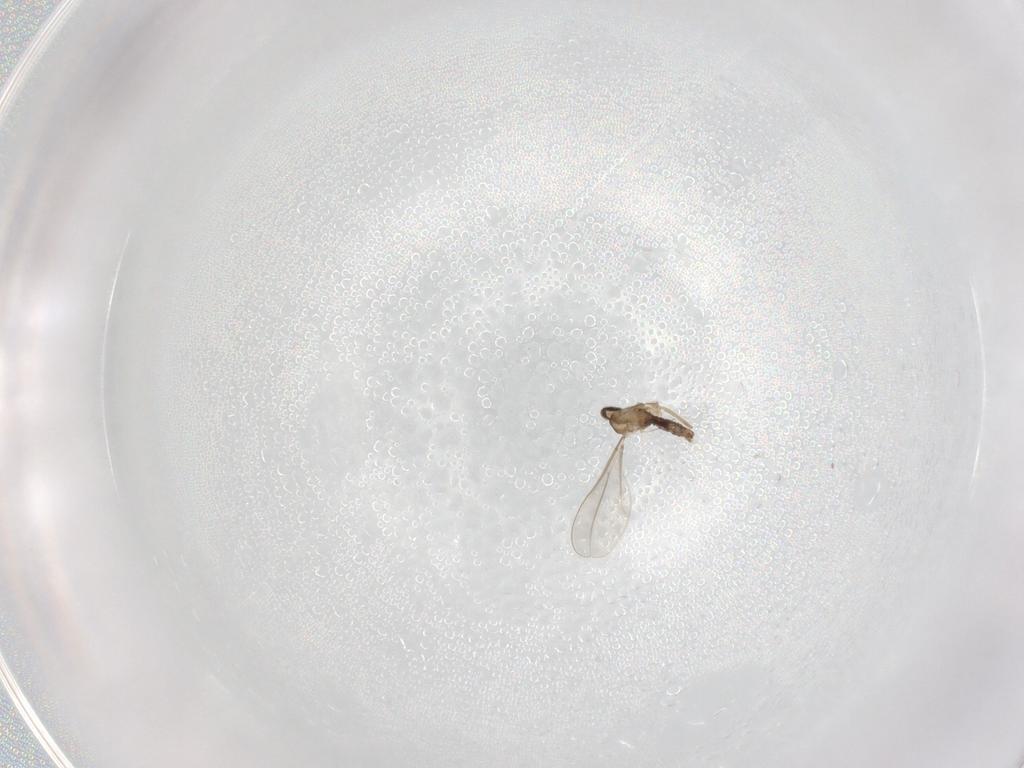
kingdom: Animalia
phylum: Arthropoda
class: Insecta
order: Diptera
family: Cecidomyiidae
